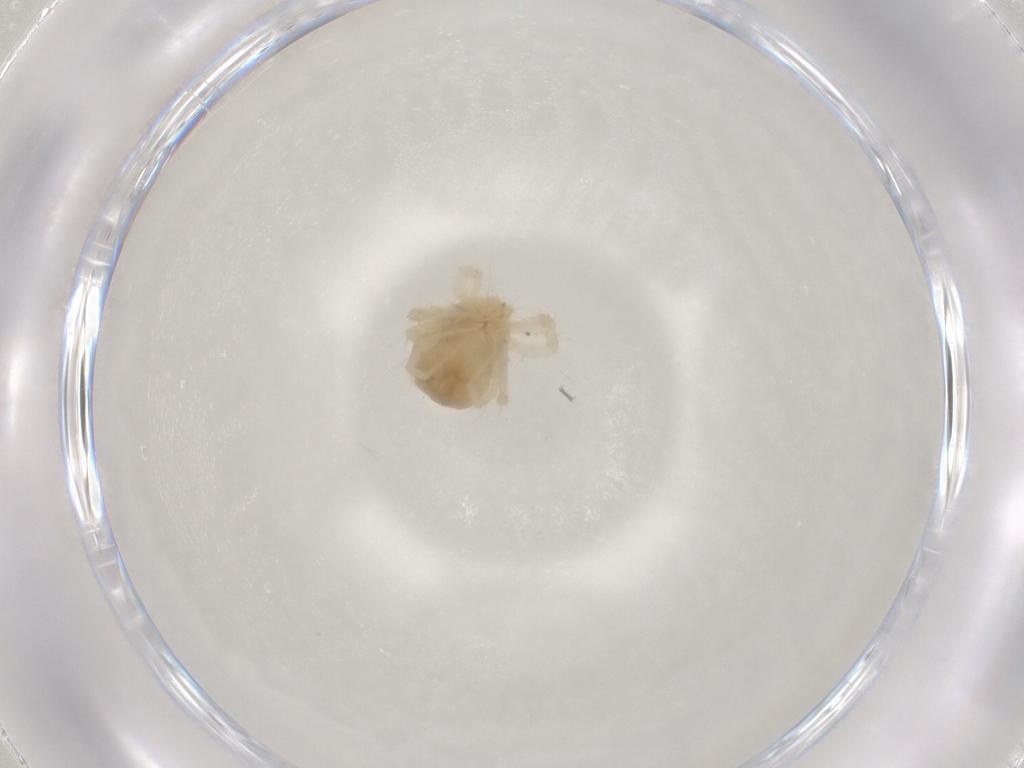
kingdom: Animalia
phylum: Arthropoda
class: Arachnida
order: Trombidiformes
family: Anystidae
